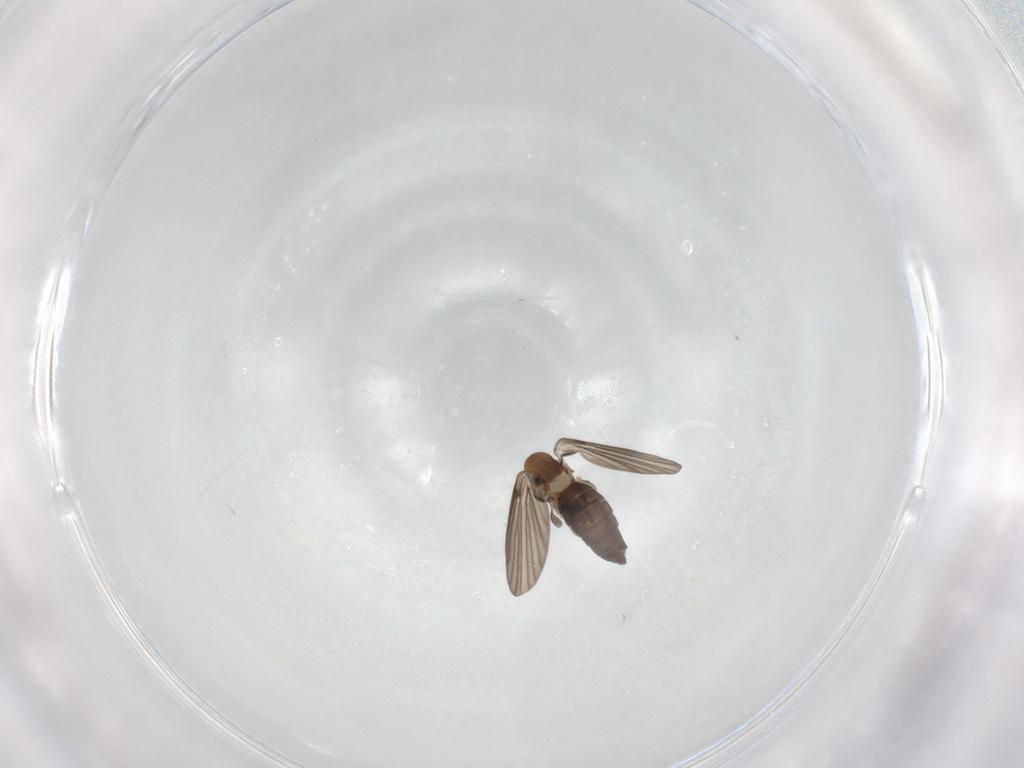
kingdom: Animalia
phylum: Arthropoda
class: Insecta
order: Diptera
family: Psychodidae
